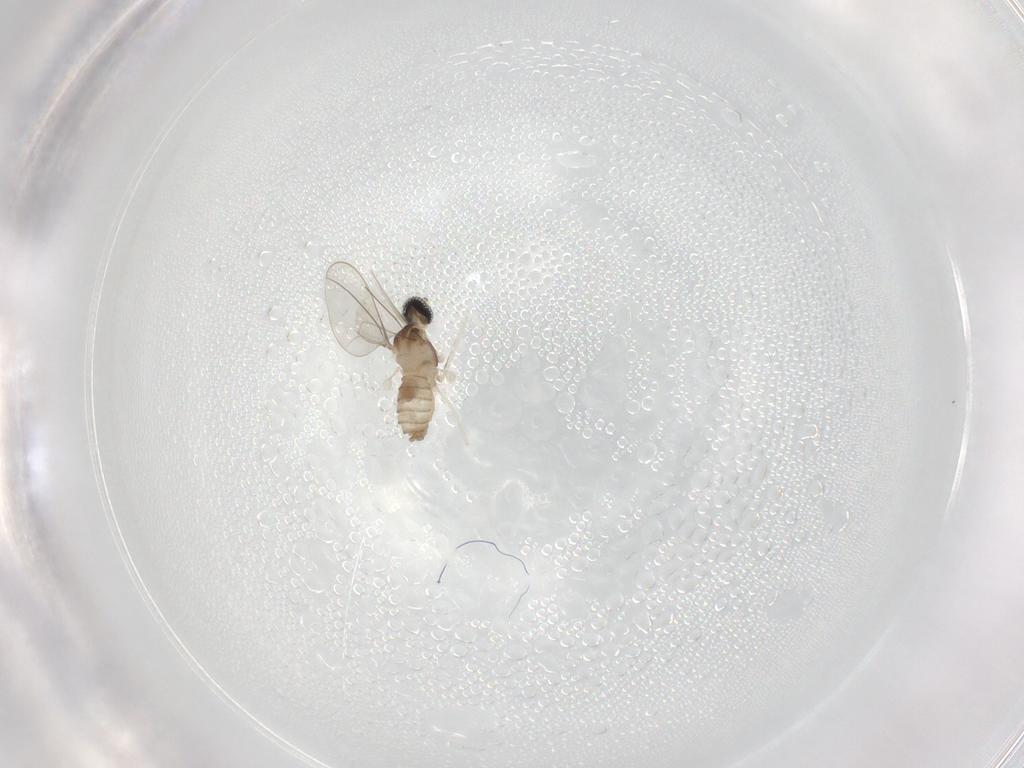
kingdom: Animalia
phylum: Arthropoda
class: Insecta
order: Diptera
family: Cecidomyiidae
